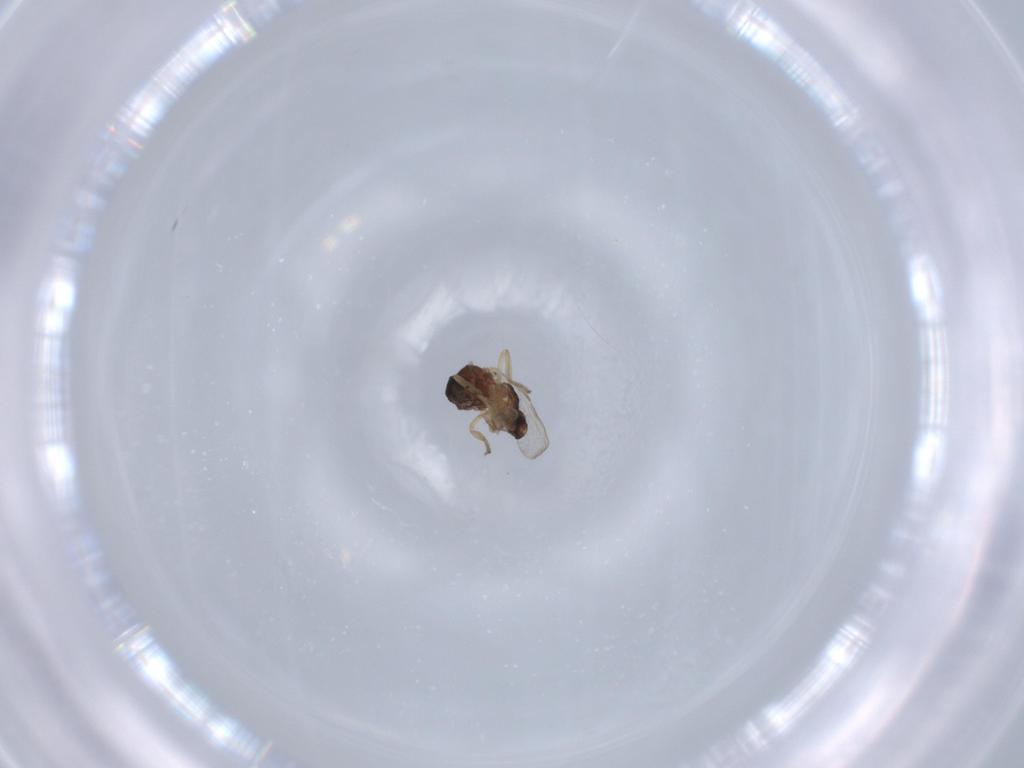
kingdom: Animalia
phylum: Arthropoda
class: Insecta
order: Diptera
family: Ceratopogonidae
